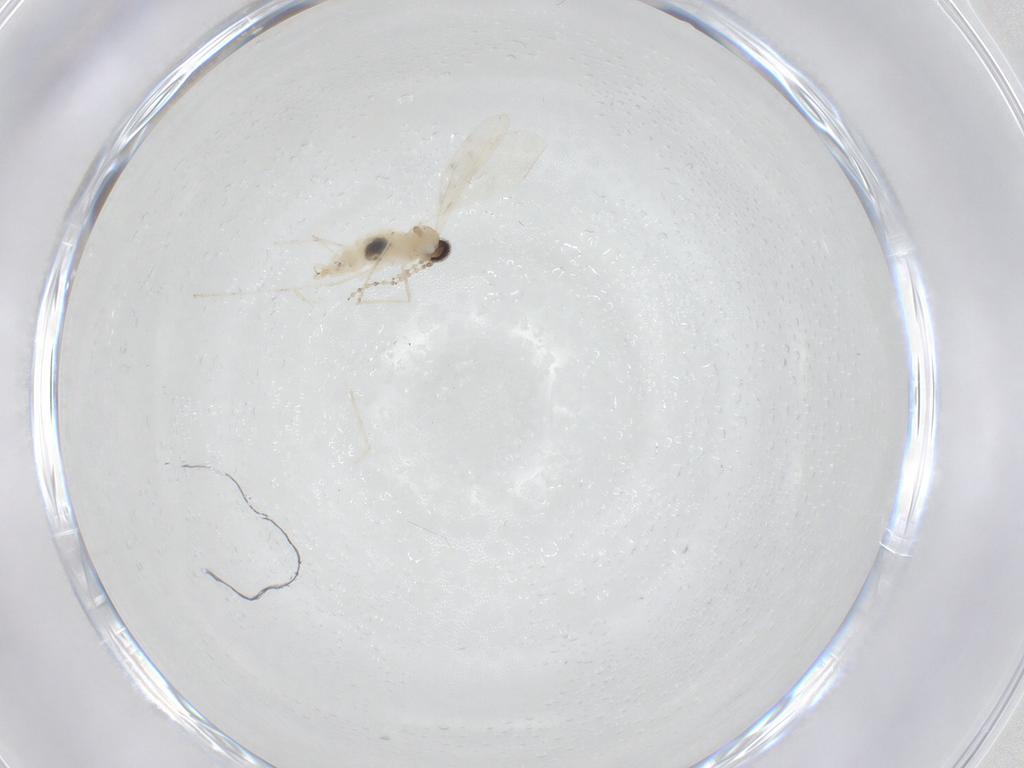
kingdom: Animalia
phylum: Arthropoda
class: Insecta
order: Diptera
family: Cecidomyiidae
